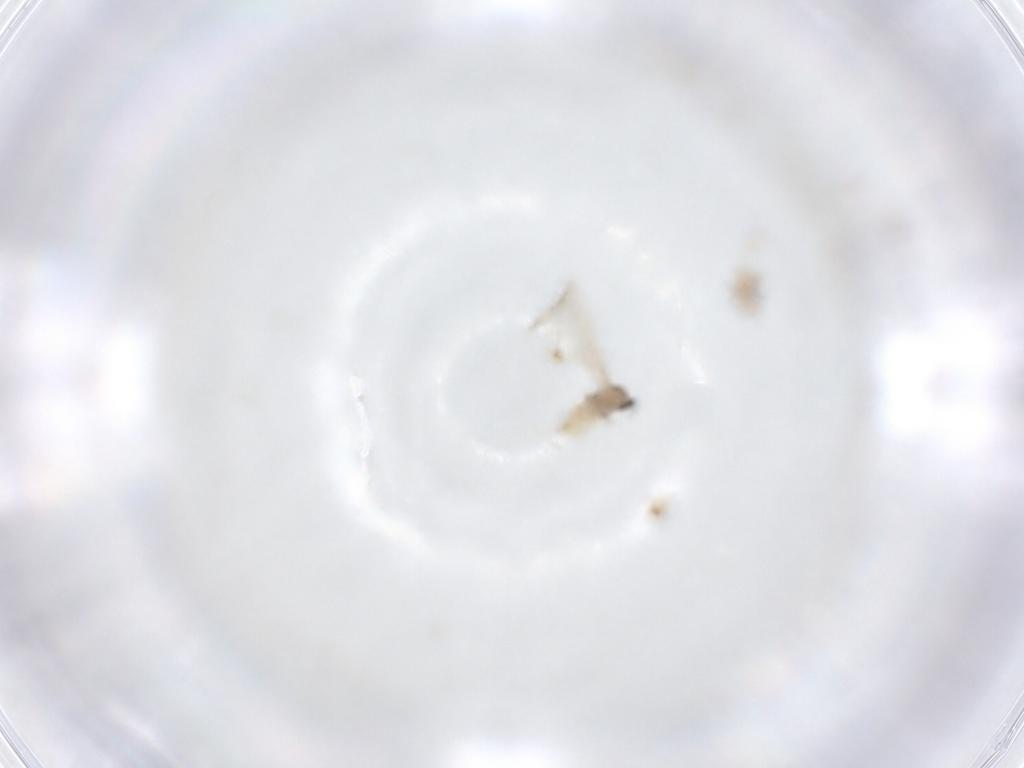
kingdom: Animalia
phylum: Arthropoda
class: Insecta
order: Diptera
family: Cecidomyiidae
